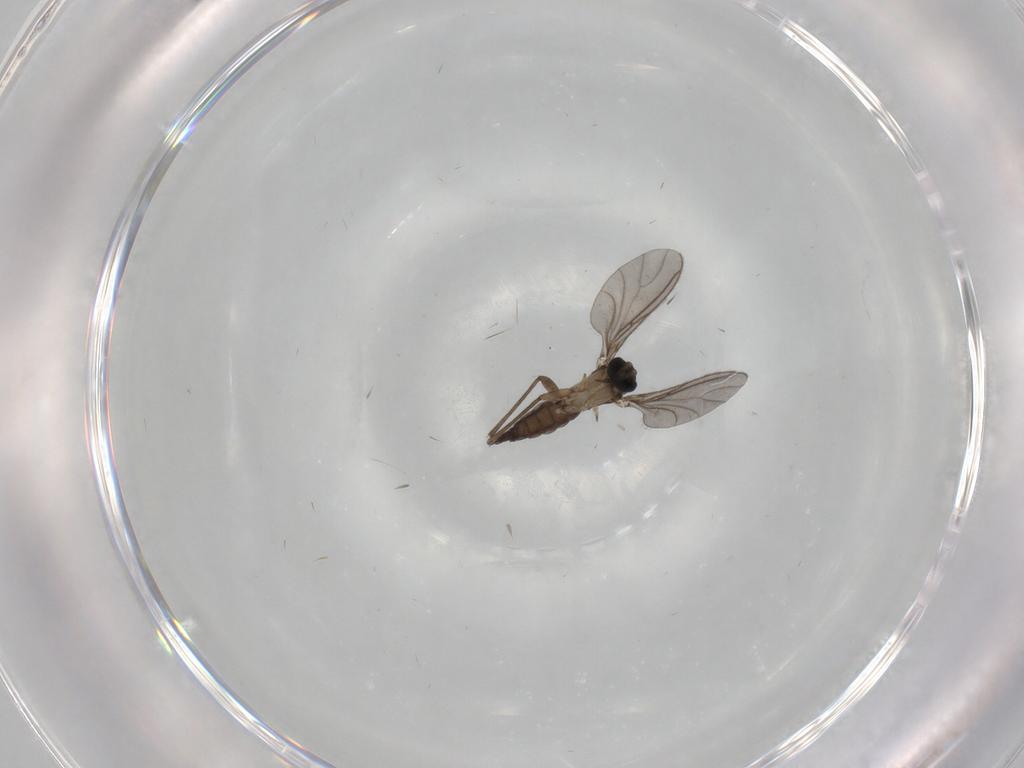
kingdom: Animalia
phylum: Arthropoda
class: Insecta
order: Diptera
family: Sciaridae
